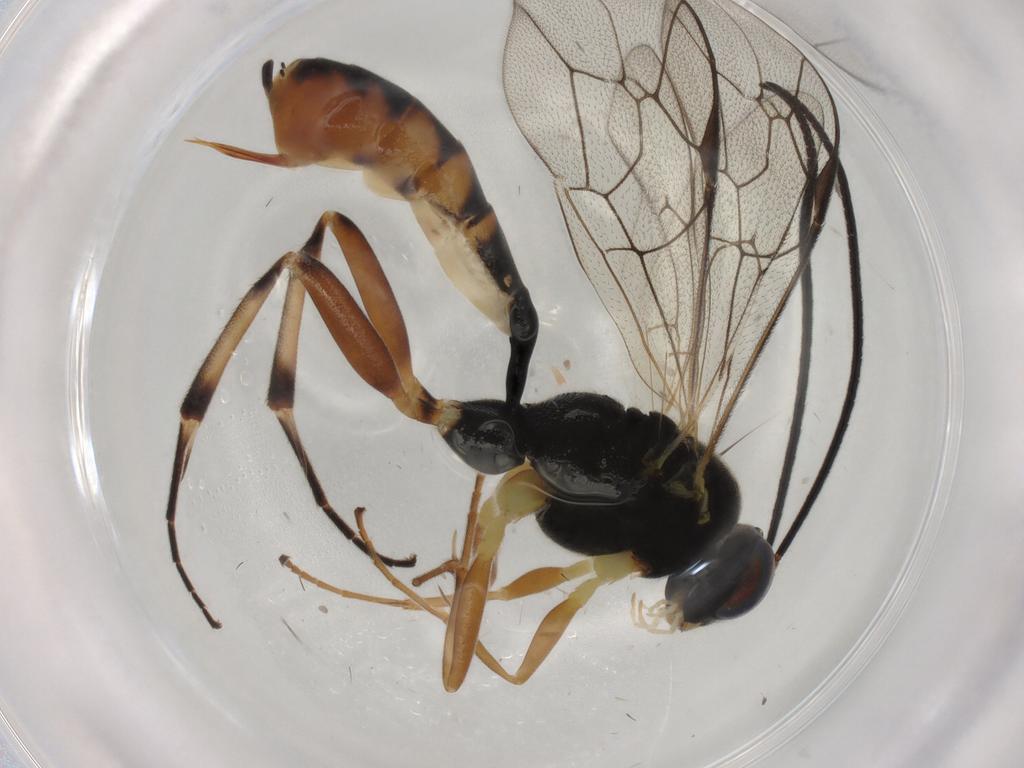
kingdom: Animalia
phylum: Arthropoda
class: Insecta
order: Hymenoptera
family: Ichneumonidae
